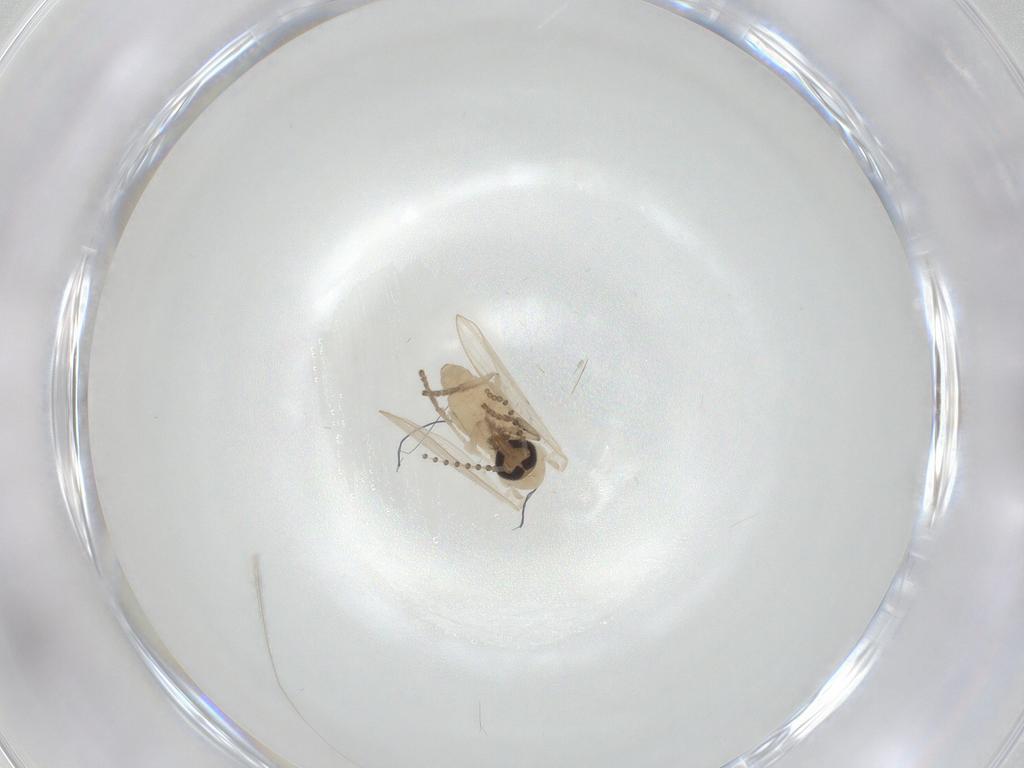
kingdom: Animalia
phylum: Arthropoda
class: Insecta
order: Diptera
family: Psychodidae
